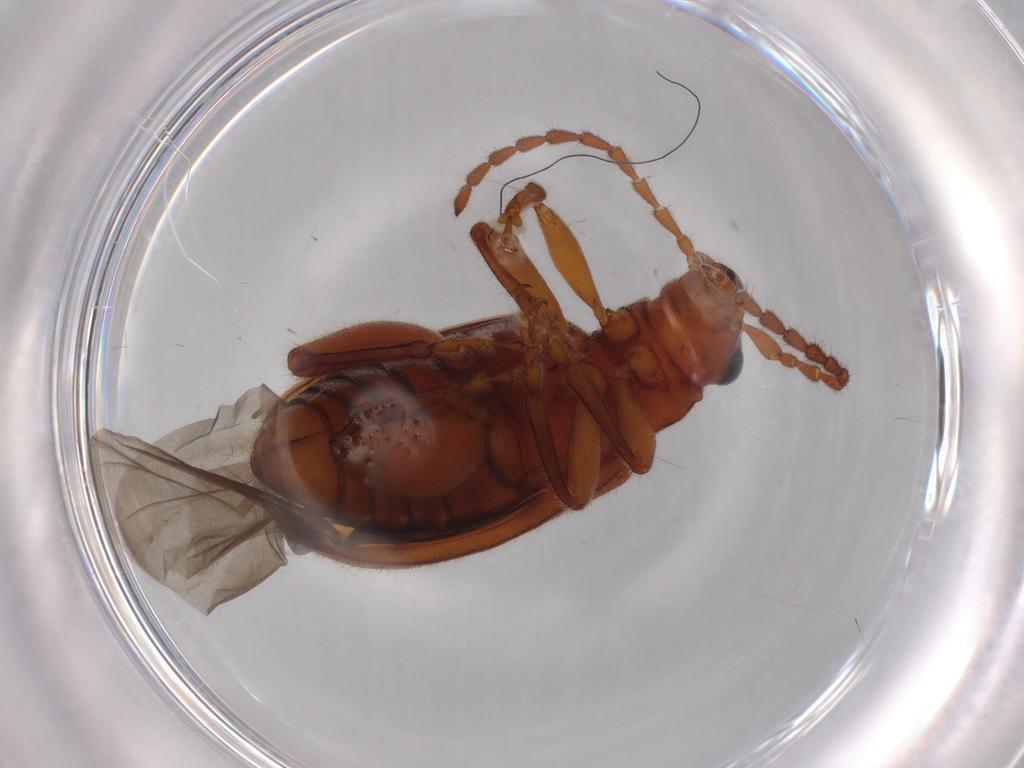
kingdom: Animalia
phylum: Arthropoda
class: Insecta
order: Coleoptera
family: Chrysomelidae
